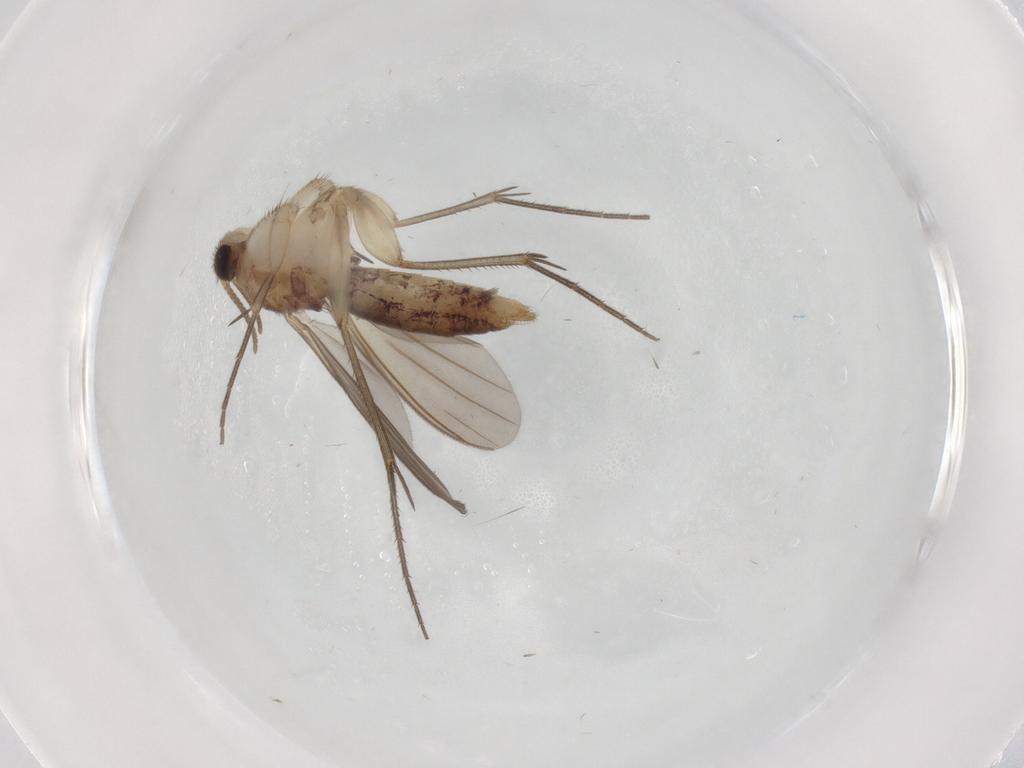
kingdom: Animalia
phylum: Arthropoda
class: Insecta
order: Diptera
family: Phoridae
